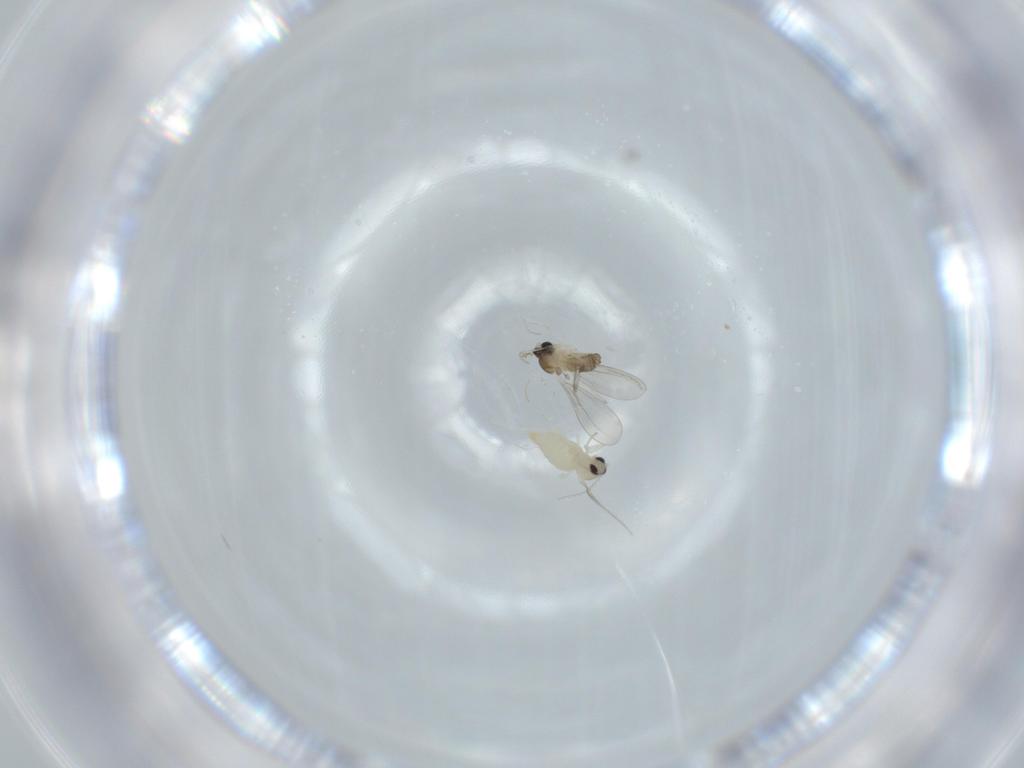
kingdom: Animalia
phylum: Arthropoda
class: Insecta
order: Diptera
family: Cecidomyiidae
